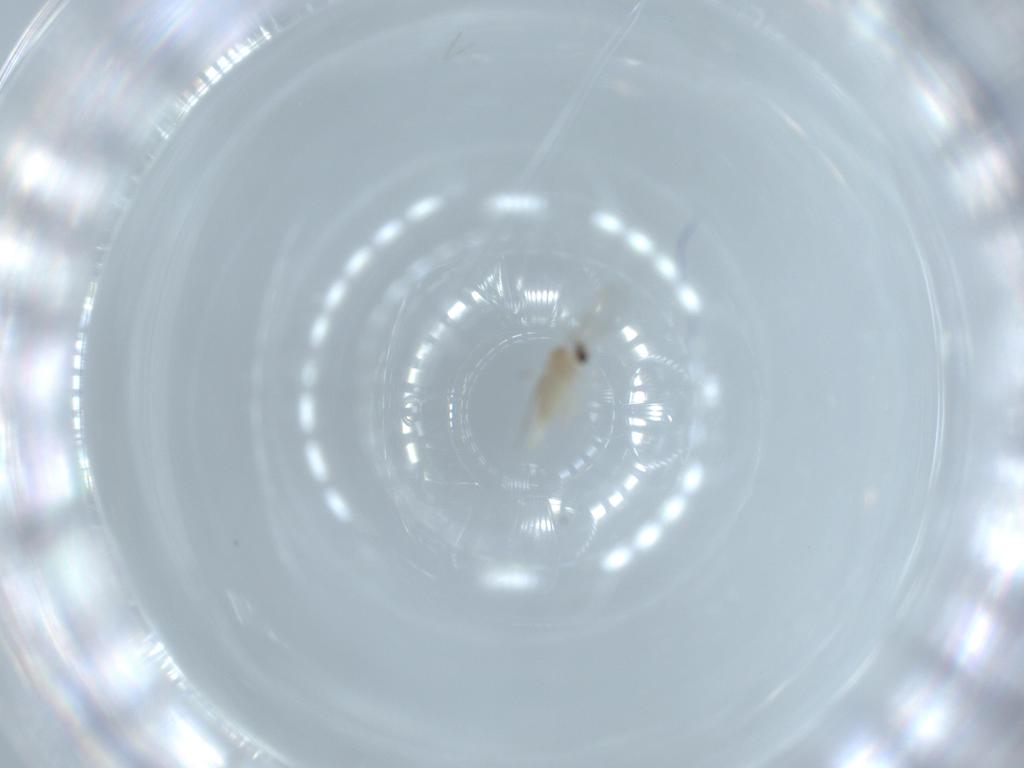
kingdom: Animalia
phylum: Arthropoda
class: Insecta
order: Diptera
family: Cecidomyiidae
